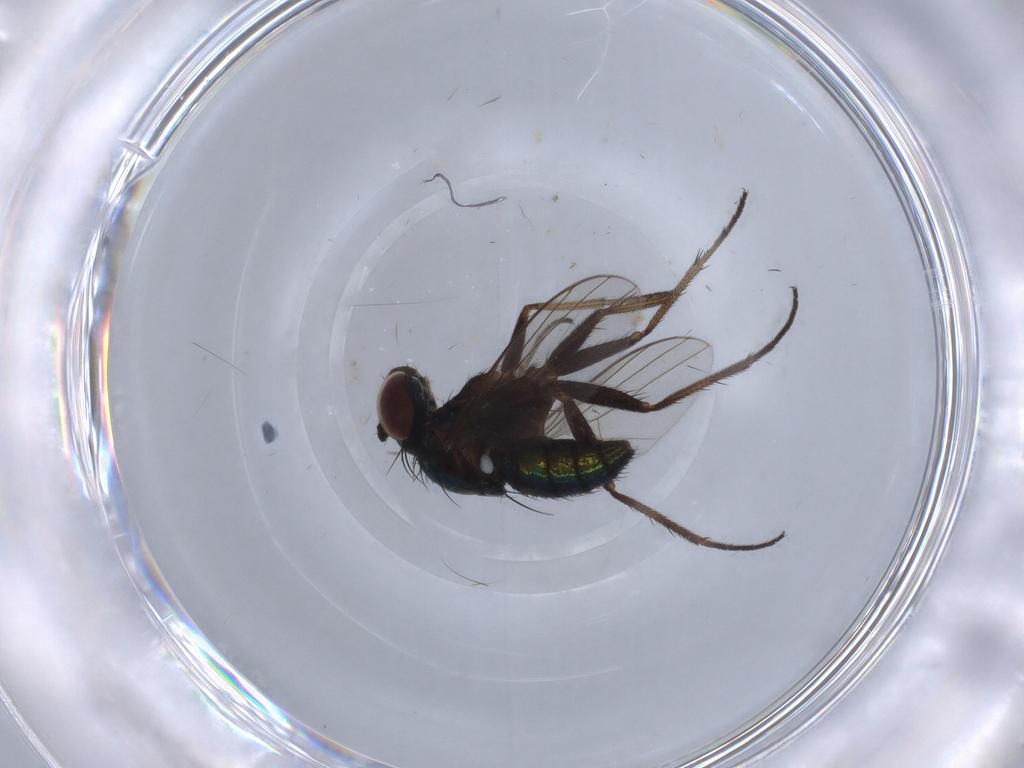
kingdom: Animalia
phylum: Arthropoda
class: Insecta
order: Diptera
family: Dolichopodidae
